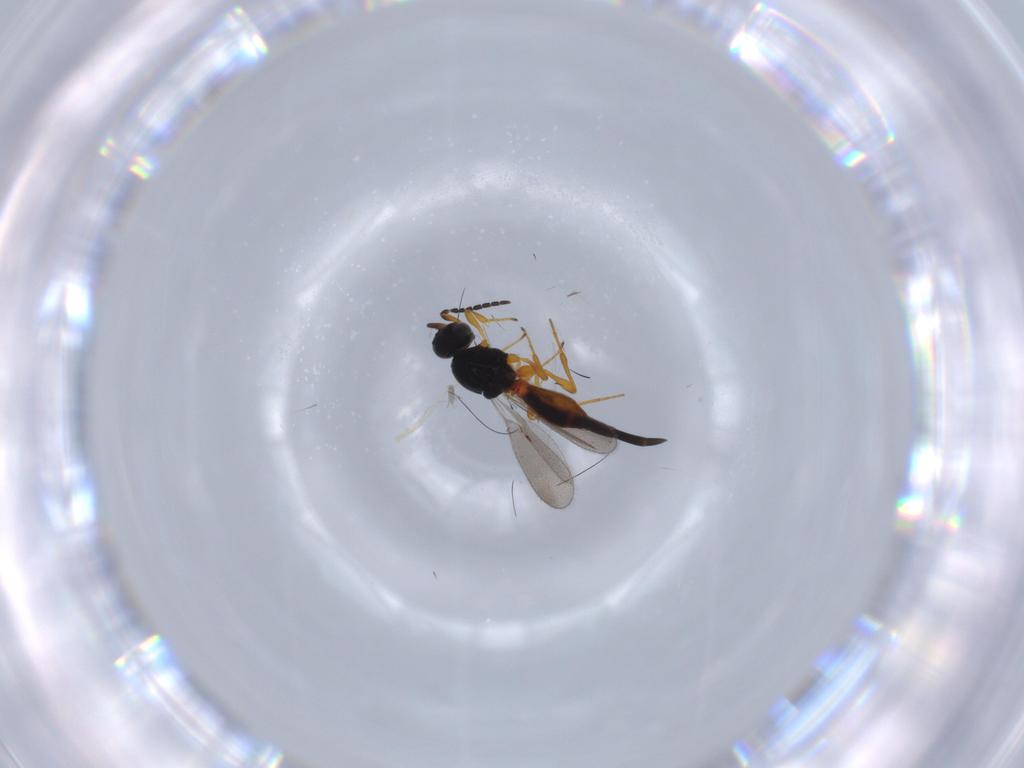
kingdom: Animalia
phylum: Arthropoda
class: Insecta
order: Hymenoptera
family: Platygastridae
